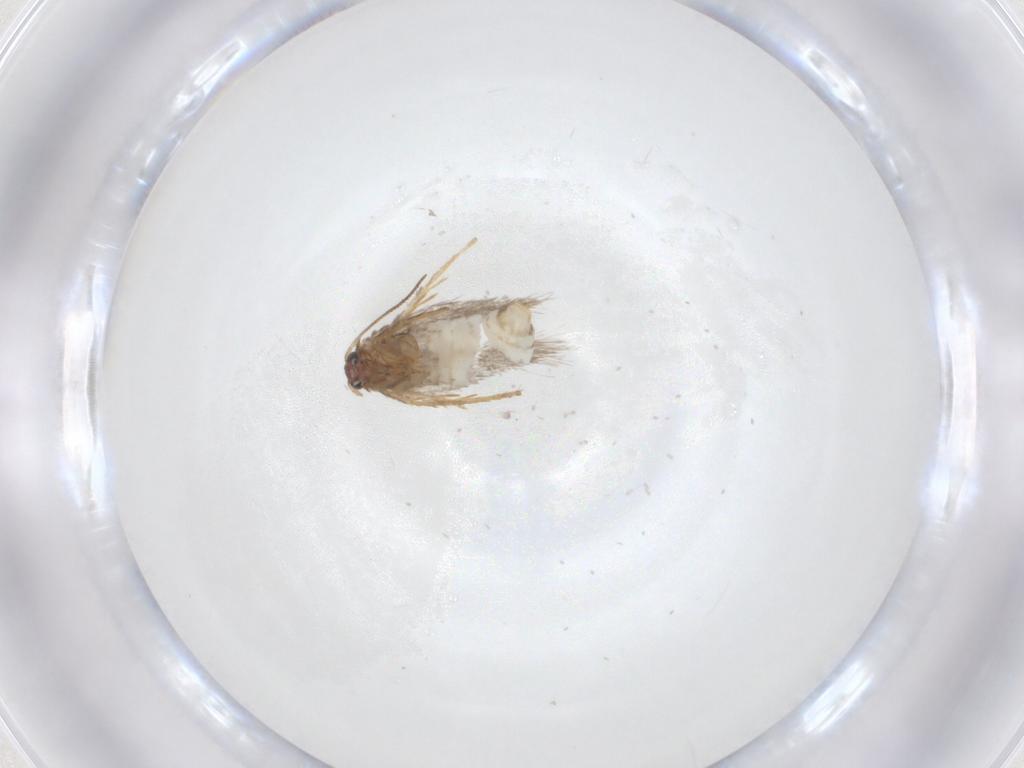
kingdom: Animalia
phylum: Arthropoda
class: Insecta
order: Lepidoptera
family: Nepticulidae
